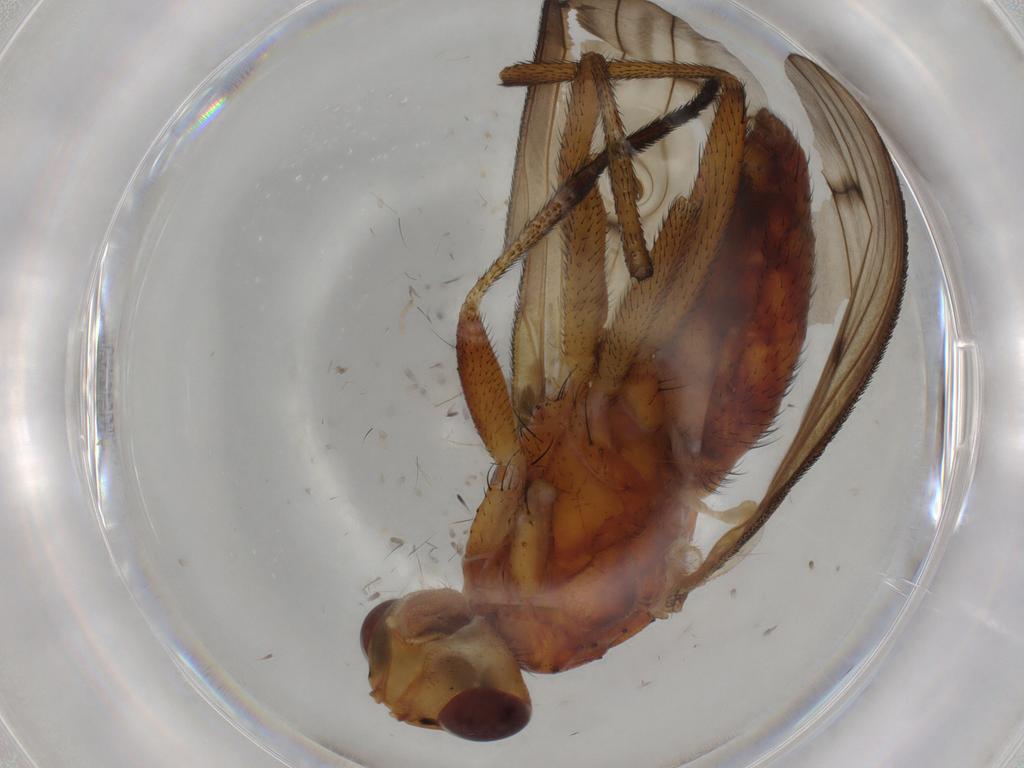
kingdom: Animalia
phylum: Arthropoda
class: Insecta
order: Diptera
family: Sciomyzidae
